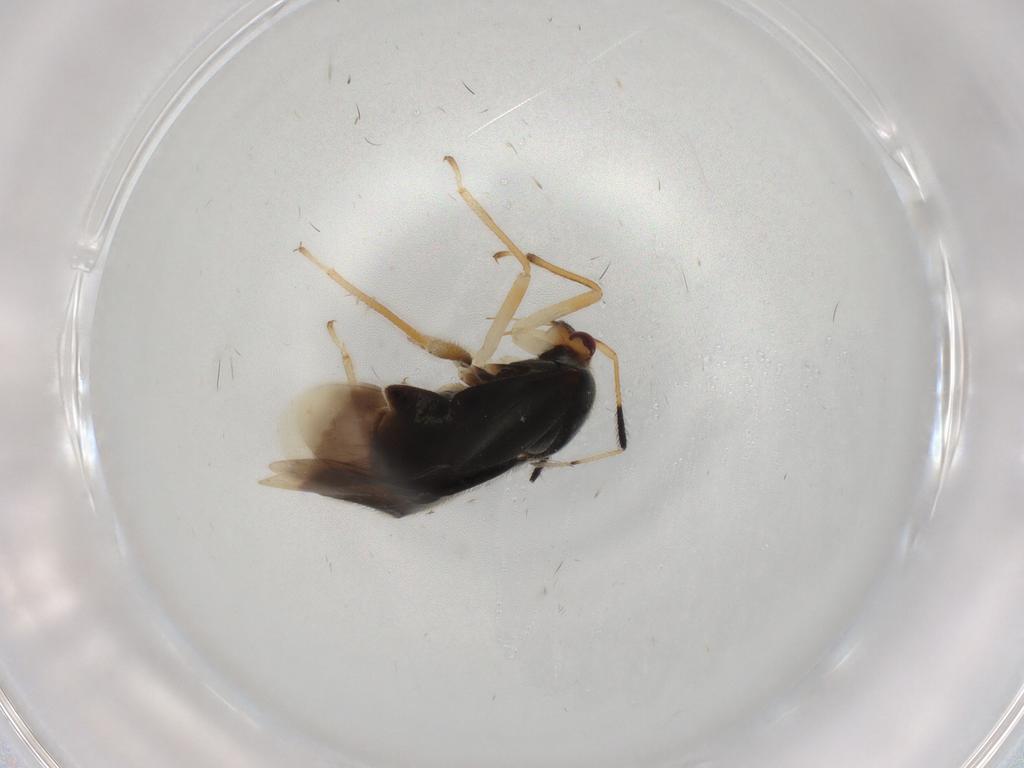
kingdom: Animalia
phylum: Arthropoda
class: Insecta
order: Hemiptera
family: Miridae
